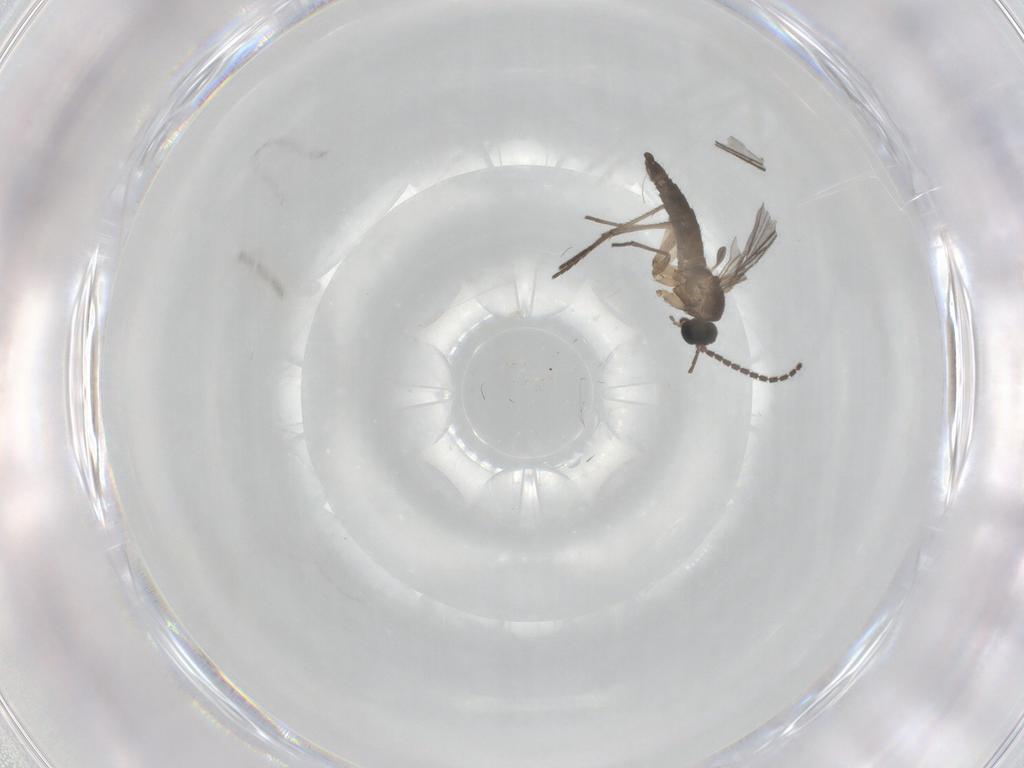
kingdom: Animalia
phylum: Arthropoda
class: Insecta
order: Diptera
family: Sciaridae
